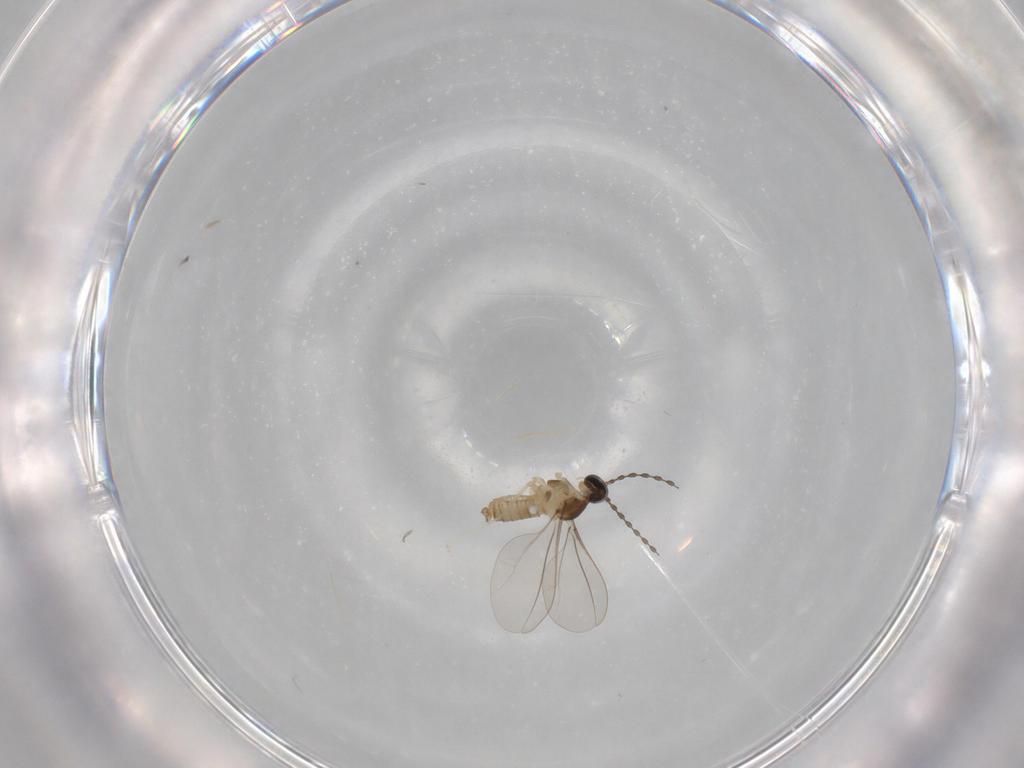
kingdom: Animalia
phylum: Arthropoda
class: Insecta
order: Diptera
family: Cecidomyiidae
